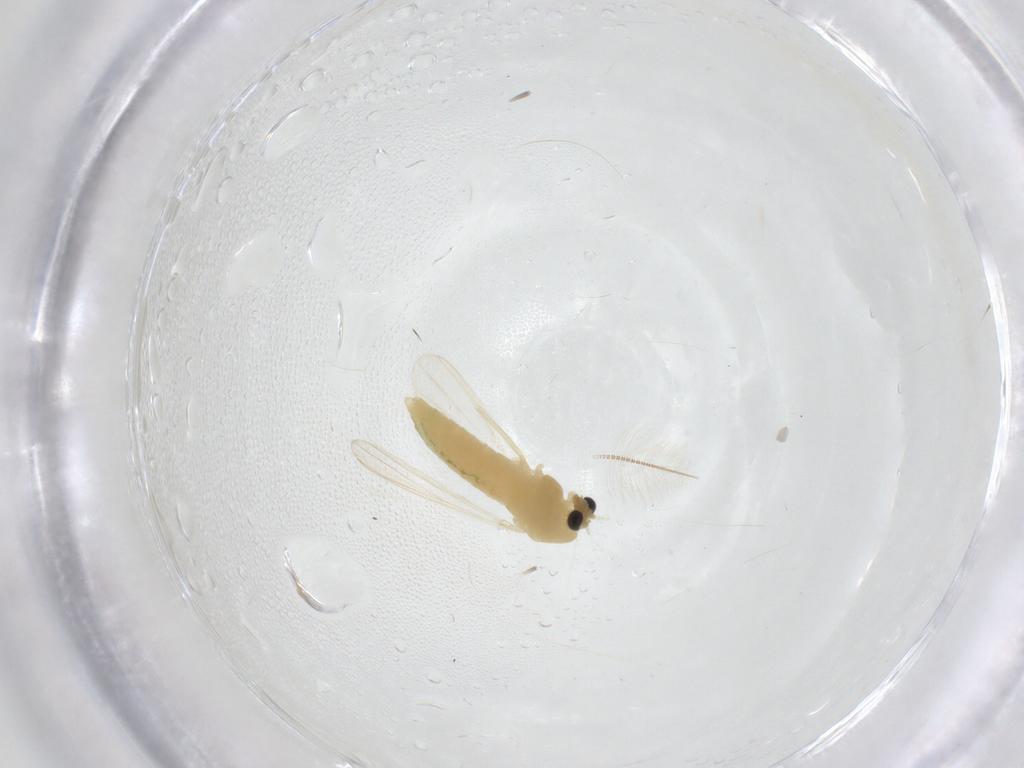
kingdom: Animalia
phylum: Arthropoda
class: Insecta
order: Diptera
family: Chironomidae
